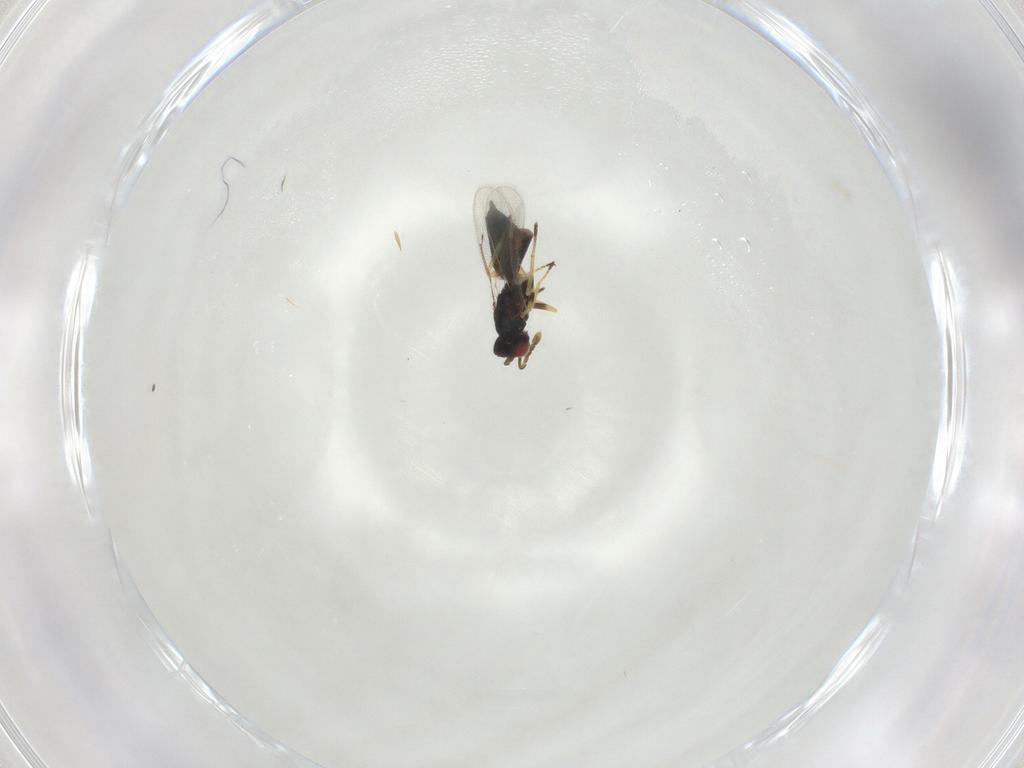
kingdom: Animalia
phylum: Arthropoda
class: Insecta
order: Hymenoptera
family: Eulophidae
